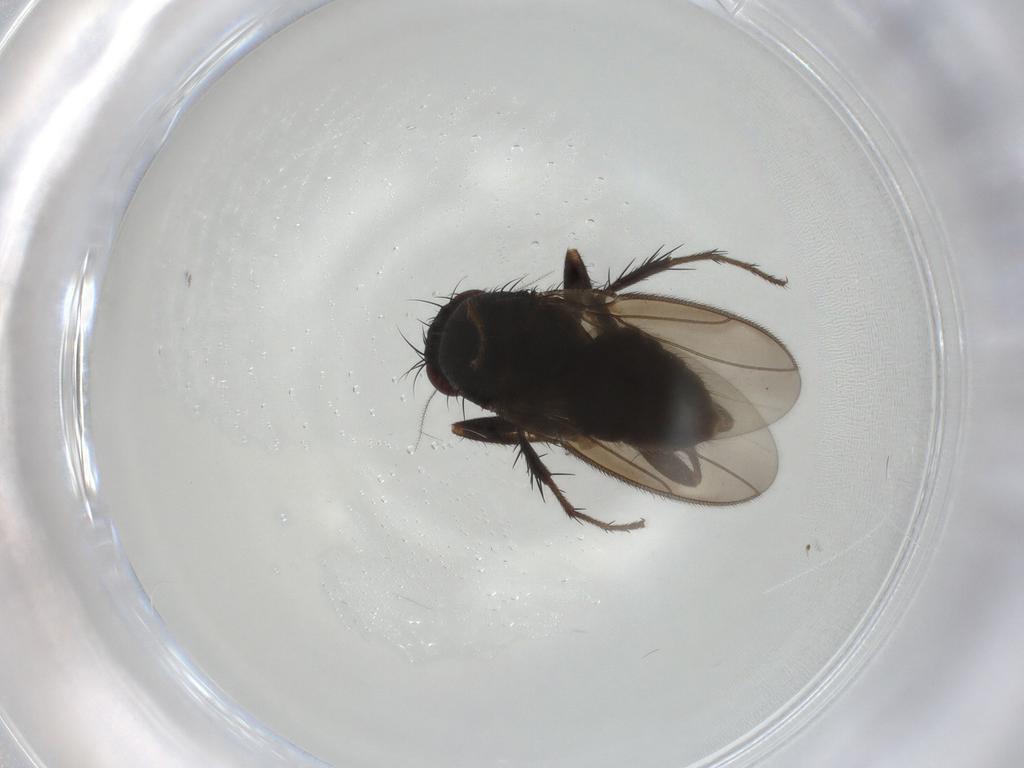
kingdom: Animalia
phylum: Arthropoda
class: Insecta
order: Diptera
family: Sphaeroceridae
